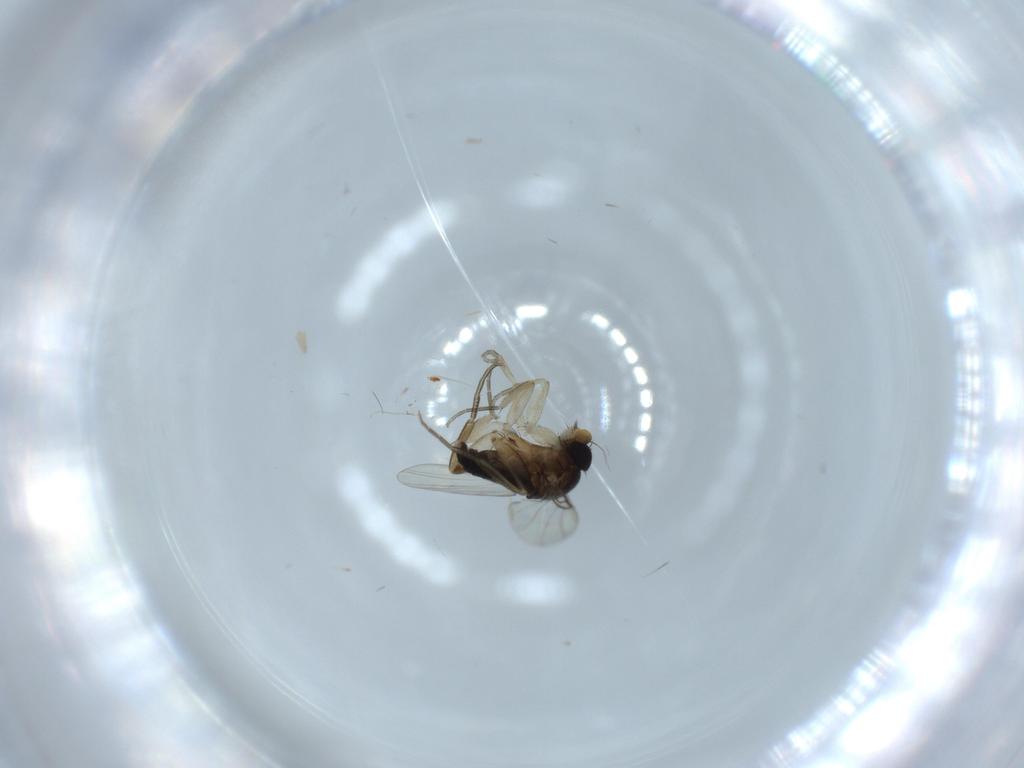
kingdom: Animalia
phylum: Arthropoda
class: Insecta
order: Diptera
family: Phoridae
